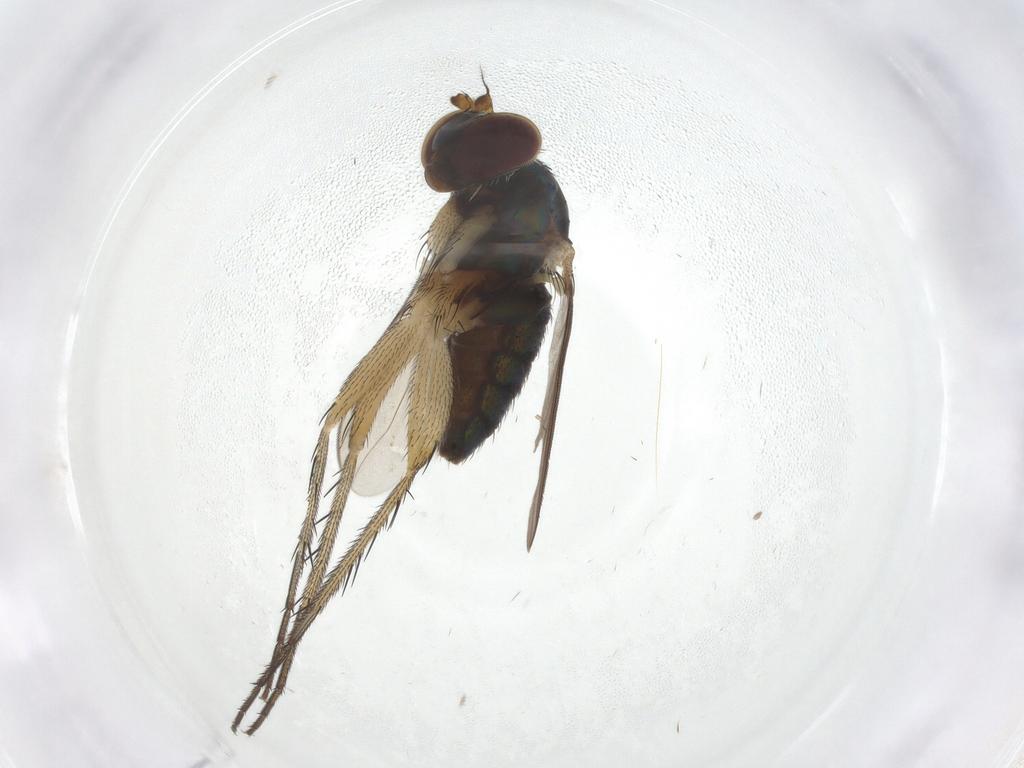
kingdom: Animalia
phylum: Arthropoda
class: Insecta
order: Diptera
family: Dolichopodidae
